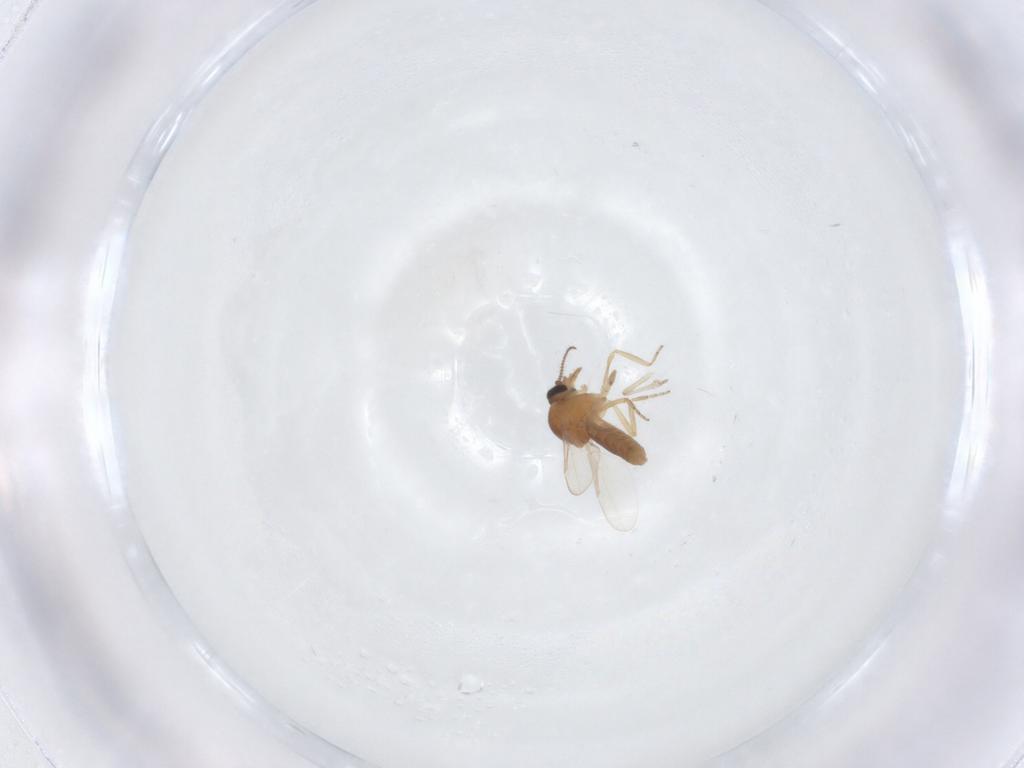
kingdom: Animalia
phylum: Arthropoda
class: Insecta
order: Diptera
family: Ceratopogonidae
